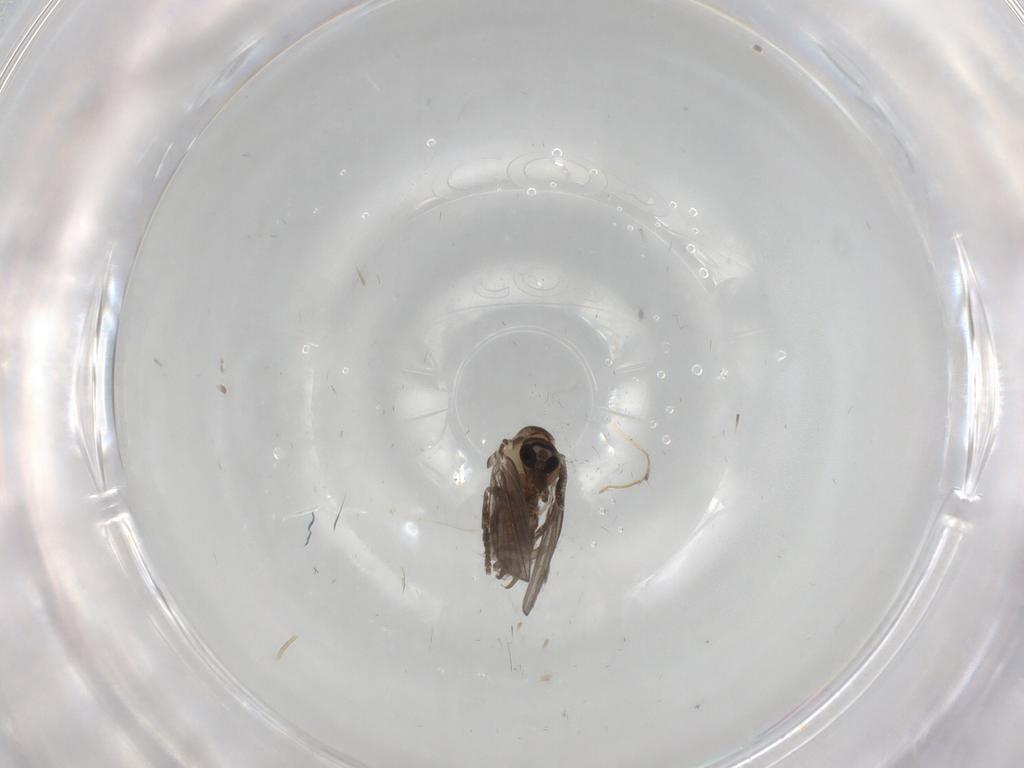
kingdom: Animalia
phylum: Arthropoda
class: Insecta
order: Diptera
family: Psychodidae
